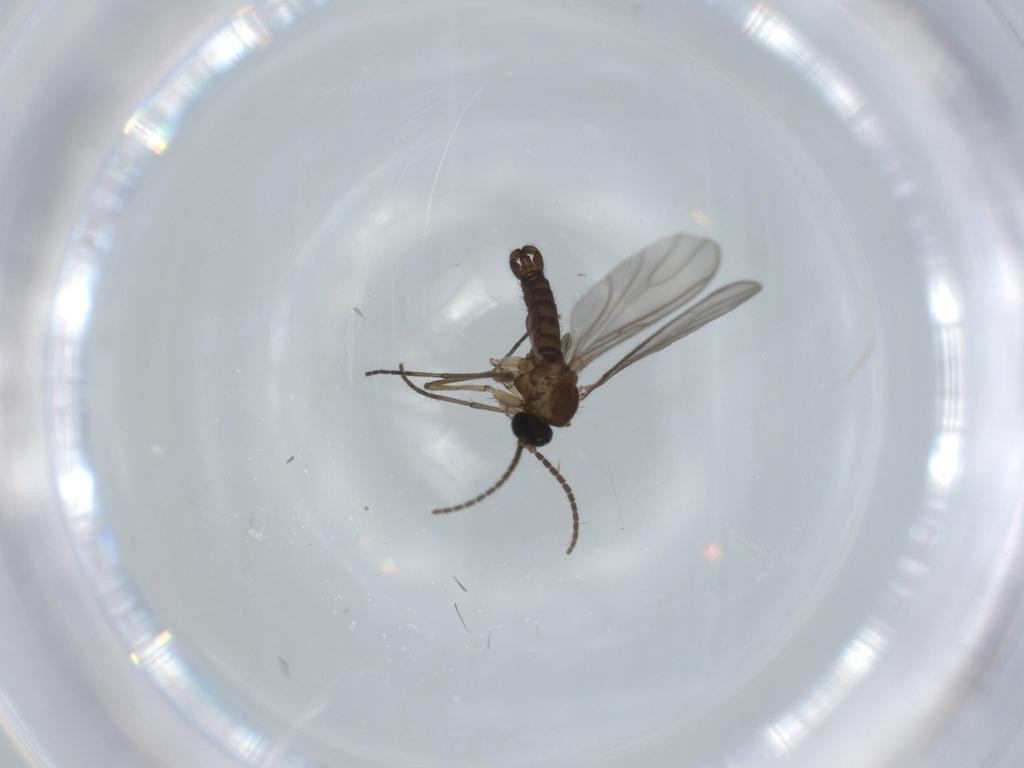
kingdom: Animalia
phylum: Arthropoda
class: Insecta
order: Diptera
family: Sciaridae
